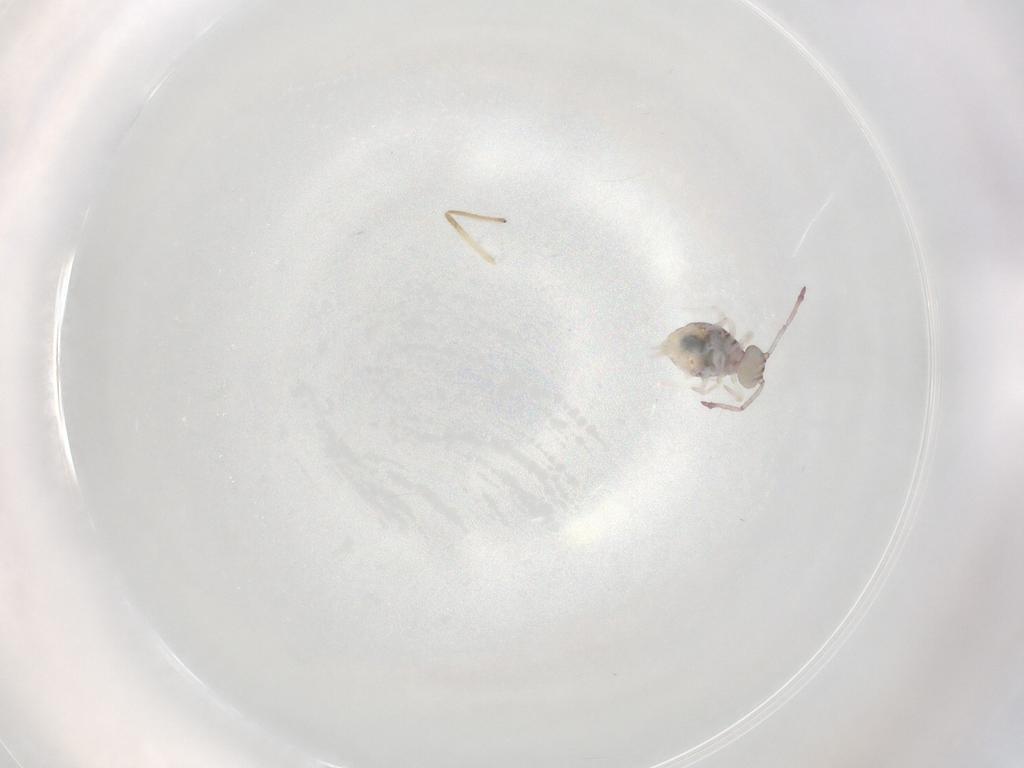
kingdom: Animalia
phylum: Arthropoda
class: Collembola
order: Symphypleona
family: Dicyrtomidae
